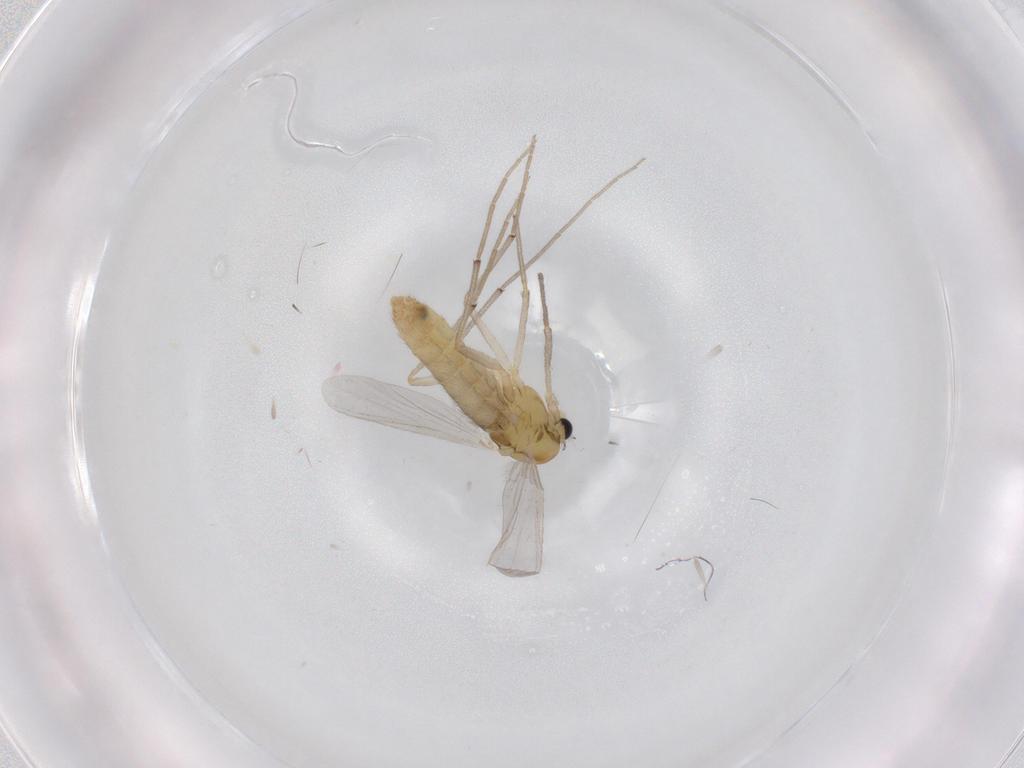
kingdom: Animalia
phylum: Arthropoda
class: Insecta
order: Diptera
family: Chironomidae
